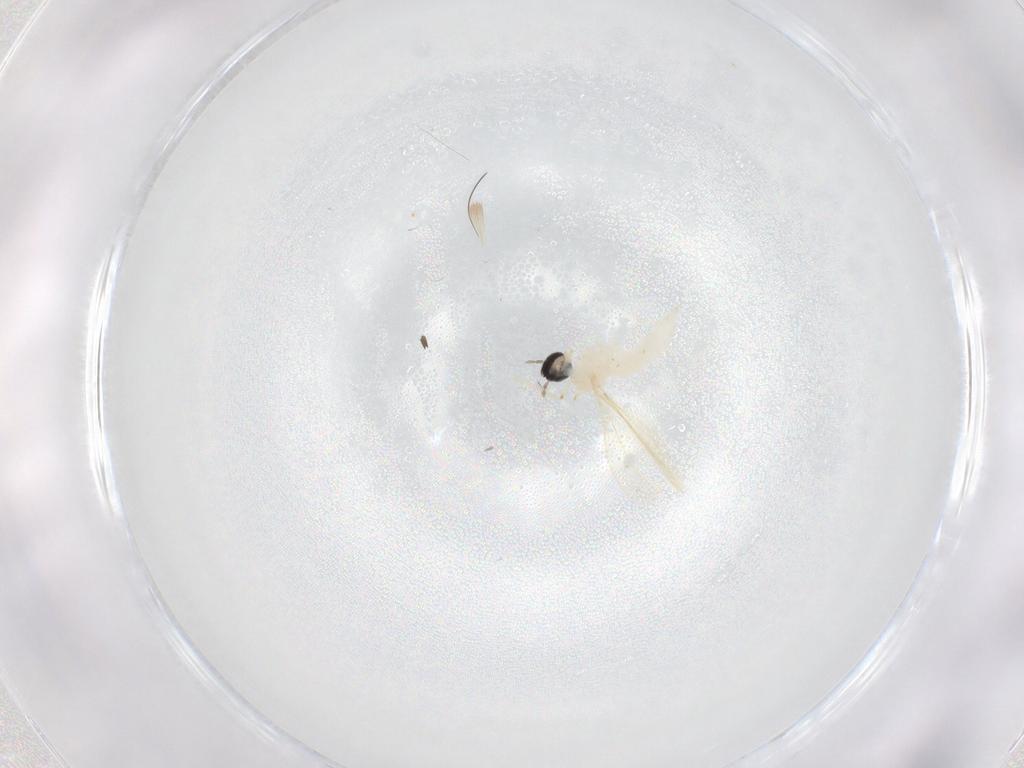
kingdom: Animalia
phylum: Arthropoda
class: Insecta
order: Diptera
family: Cecidomyiidae
